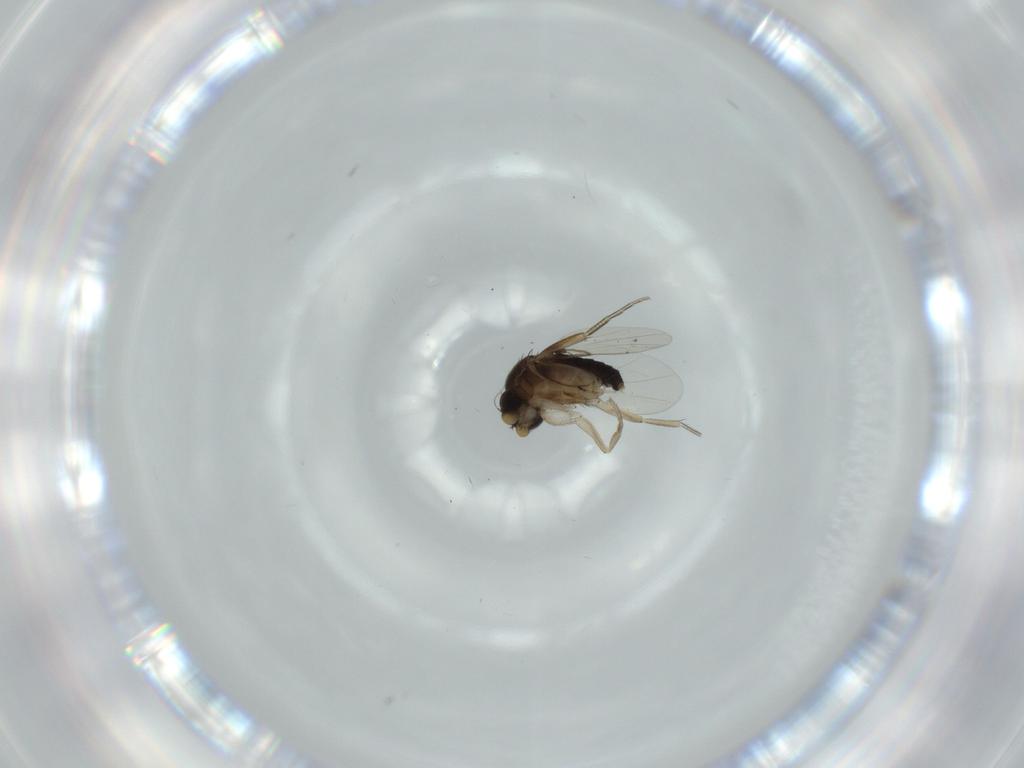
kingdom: Animalia
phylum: Arthropoda
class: Insecta
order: Diptera
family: Phoridae
